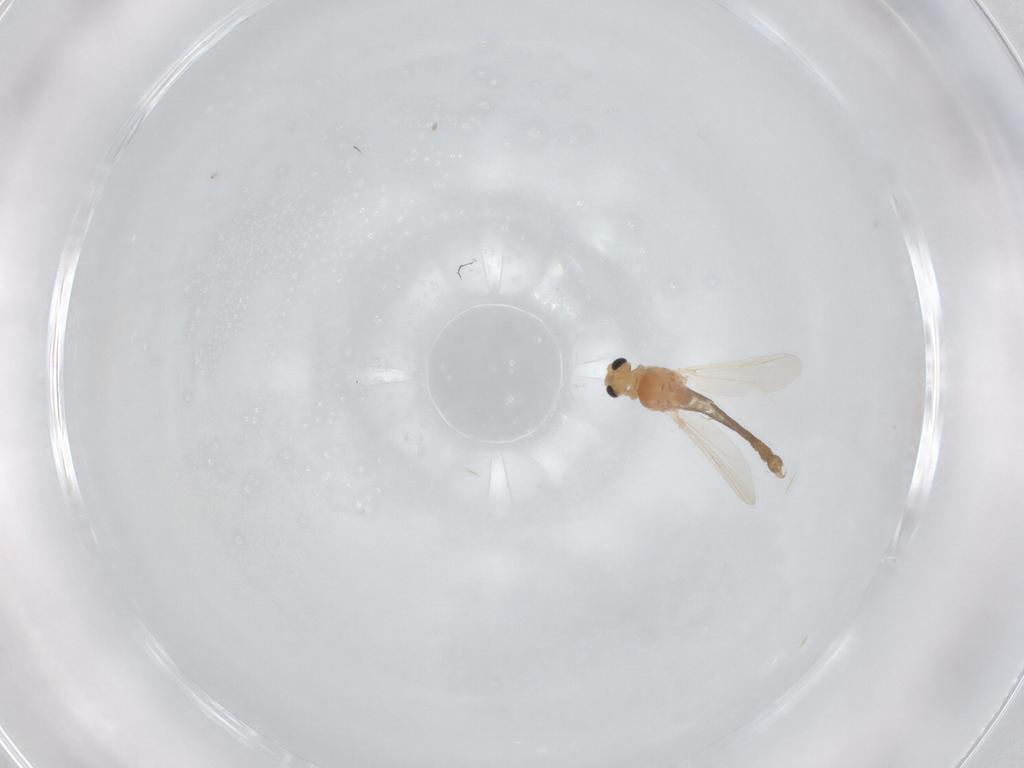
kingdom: Animalia
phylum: Arthropoda
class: Insecta
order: Diptera
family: Chironomidae
